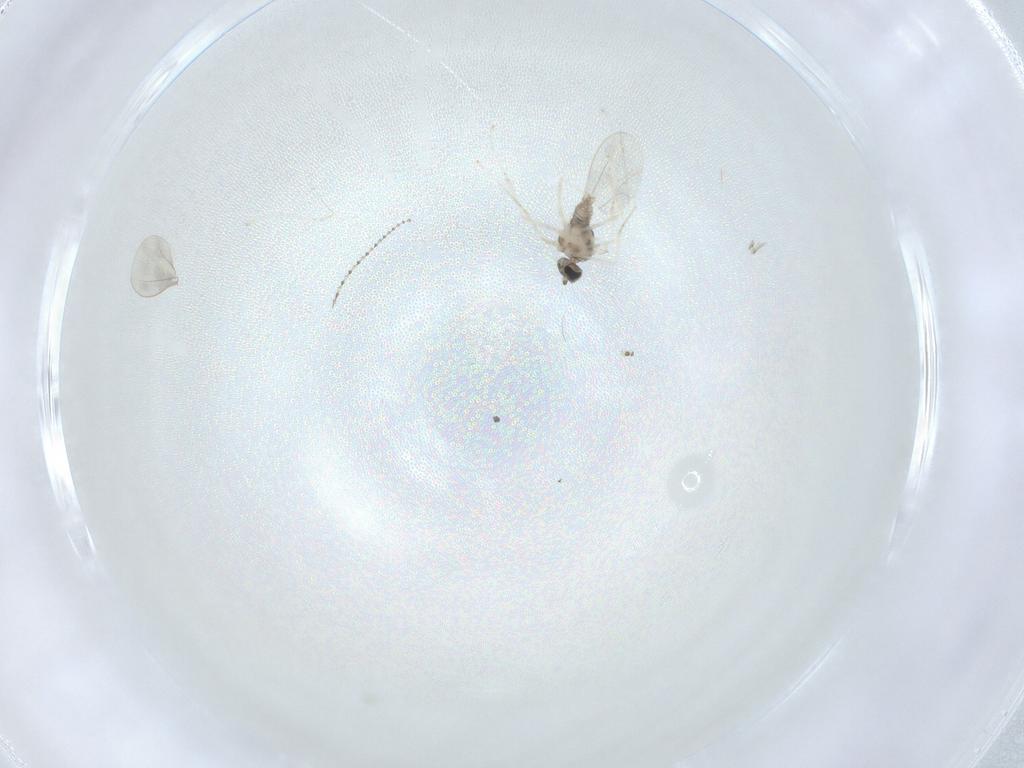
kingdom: Animalia
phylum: Arthropoda
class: Insecta
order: Diptera
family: Cecidomyiidae
